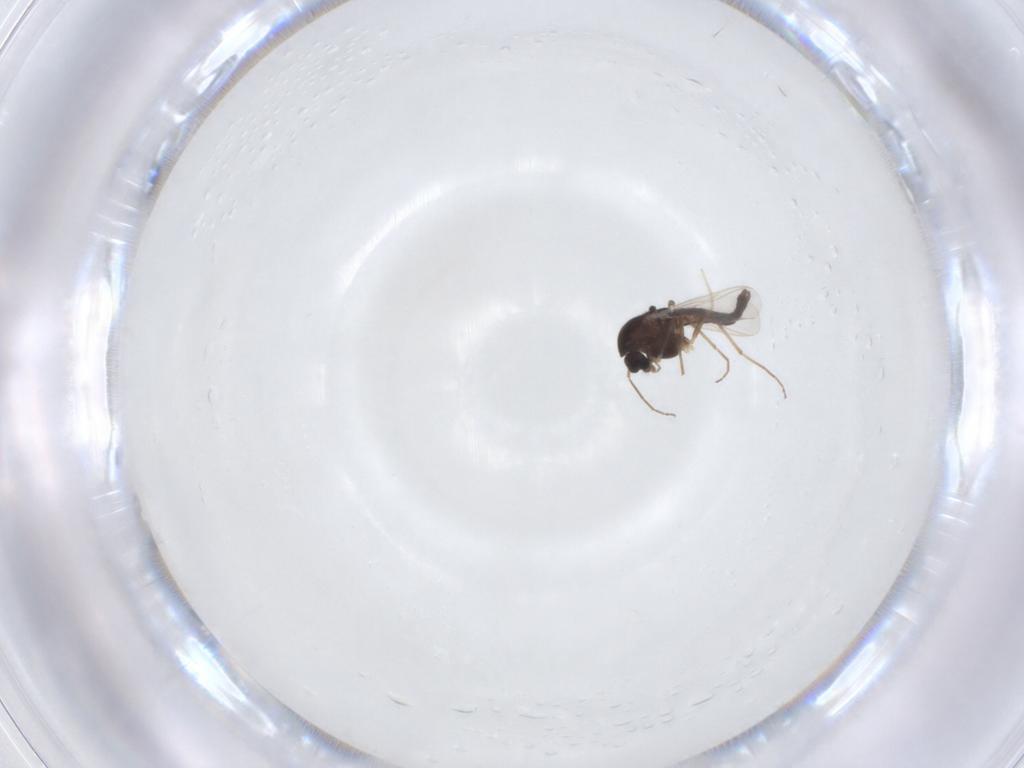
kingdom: Animalia
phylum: Arthropoda
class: Insecta
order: Diptera
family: Chironomidae
